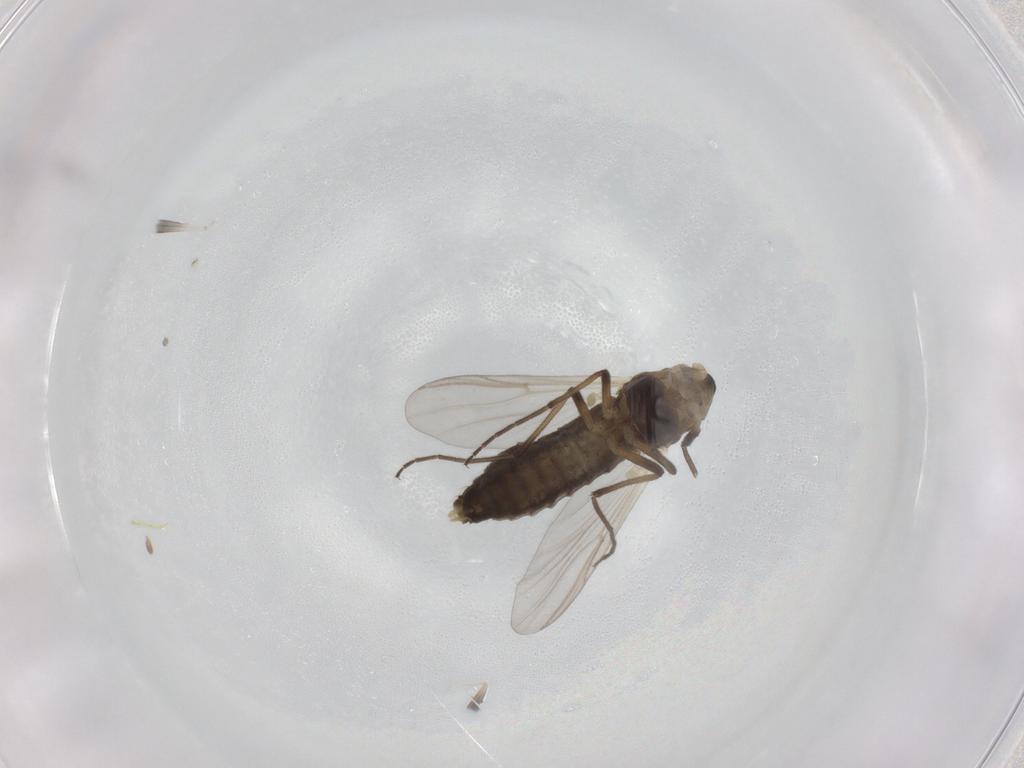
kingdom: Animalia
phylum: Arthropoda
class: Insecta
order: Diptera
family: Chironomidae
